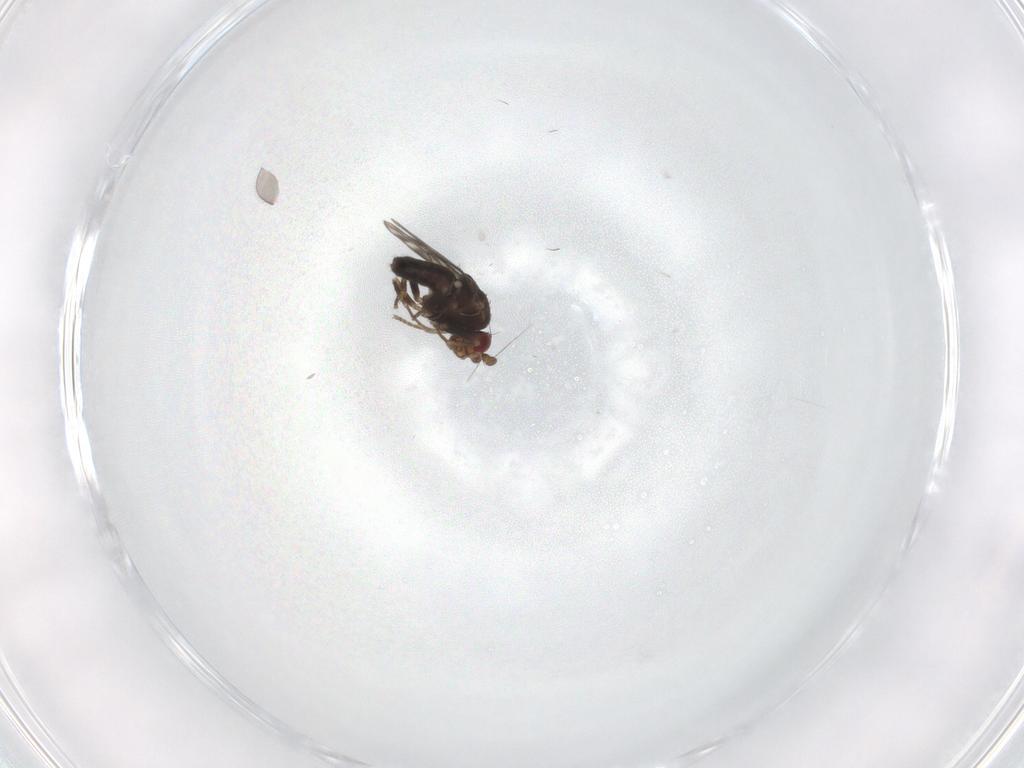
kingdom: Animalia
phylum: Arthropoda
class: Insecta
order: Diptera
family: Sphaeroceridae
